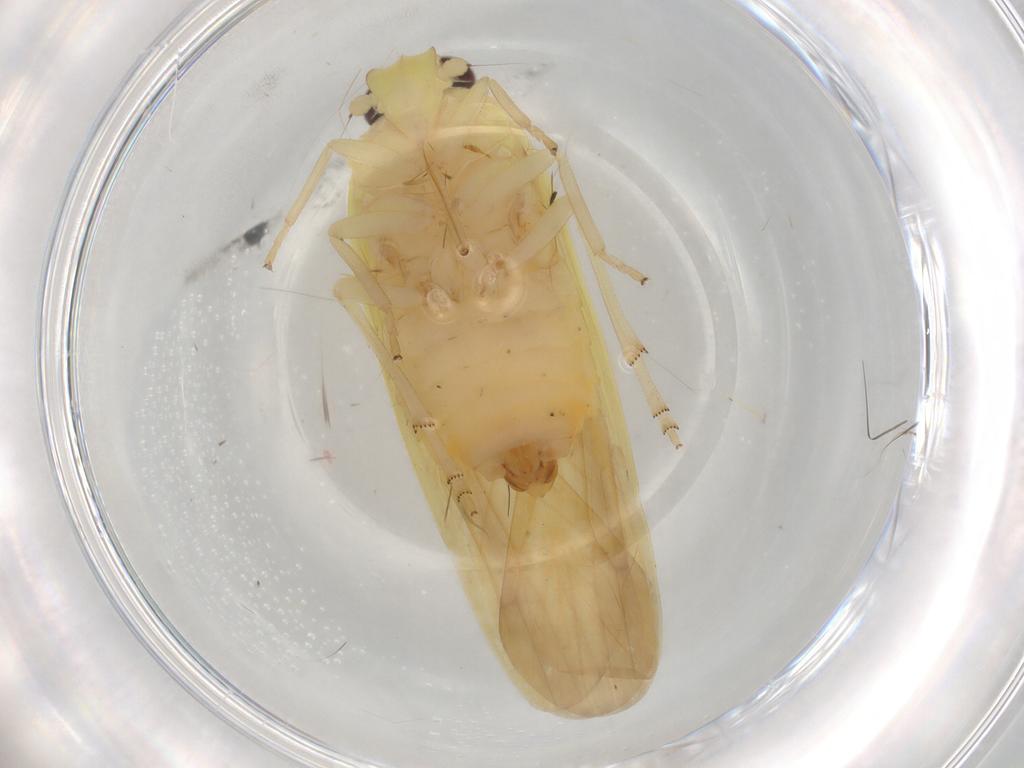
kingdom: Animalia
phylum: Arthropoda
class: Insecta
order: Hemiptera
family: Achilidae
